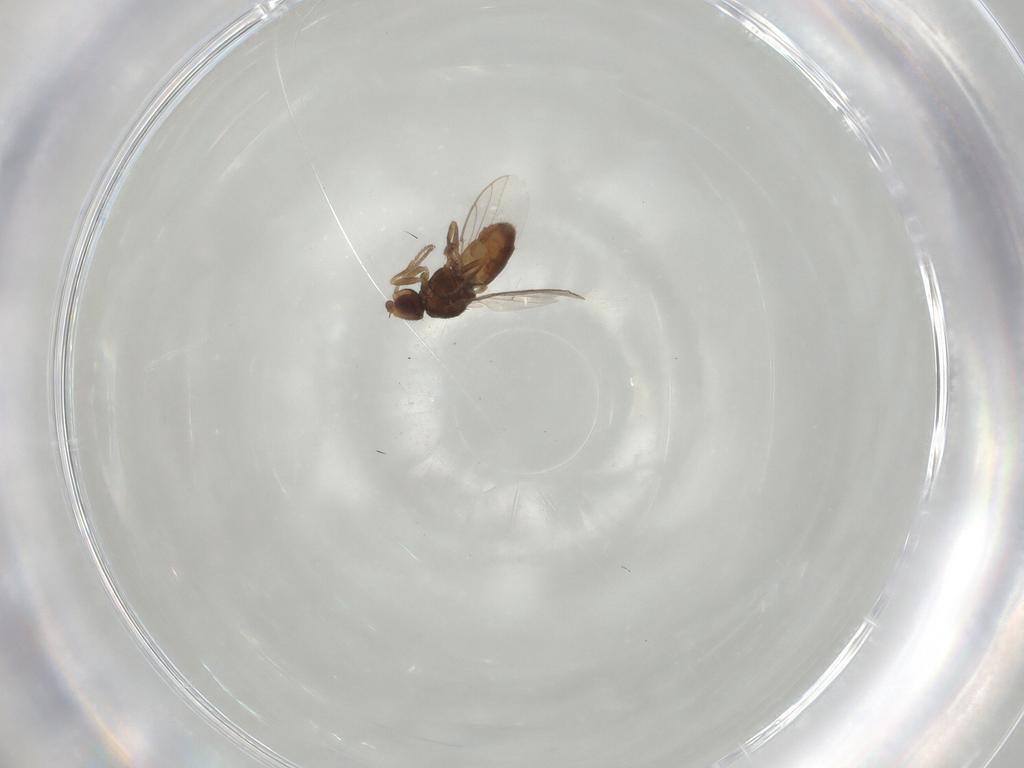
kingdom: Animalia
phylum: Arthropoda
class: Insecta
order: Diptera
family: Chloropidae
